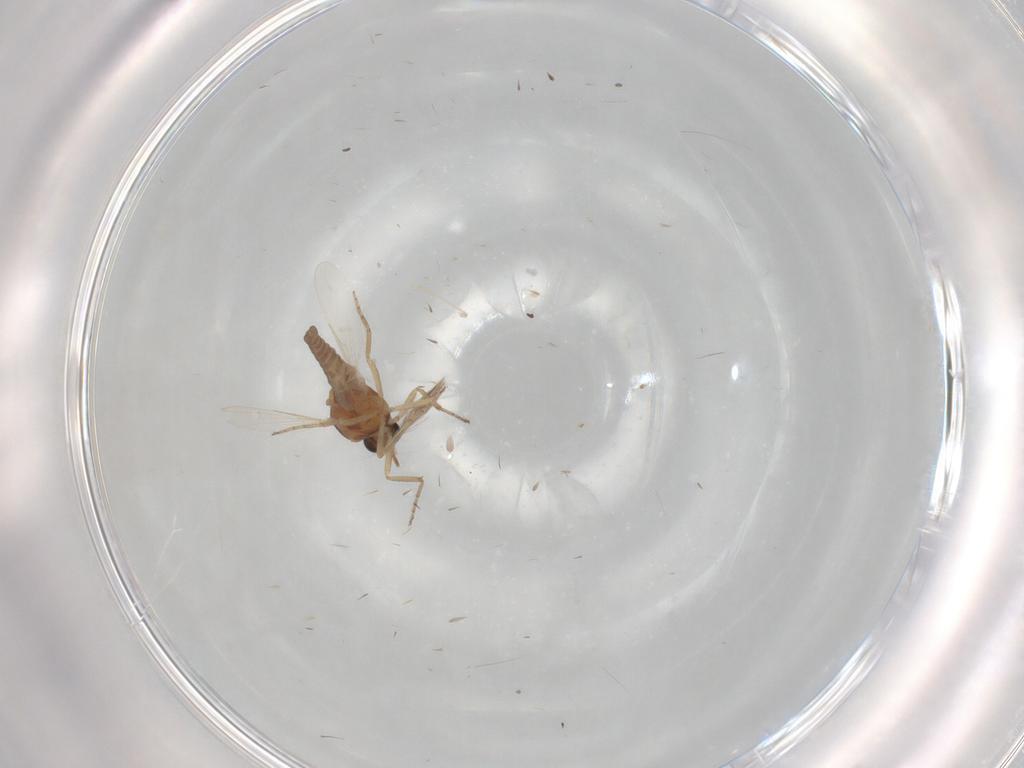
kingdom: Animalia
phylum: Arthropoda
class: Insecta
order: Diptera
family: Ceratopogonidae
